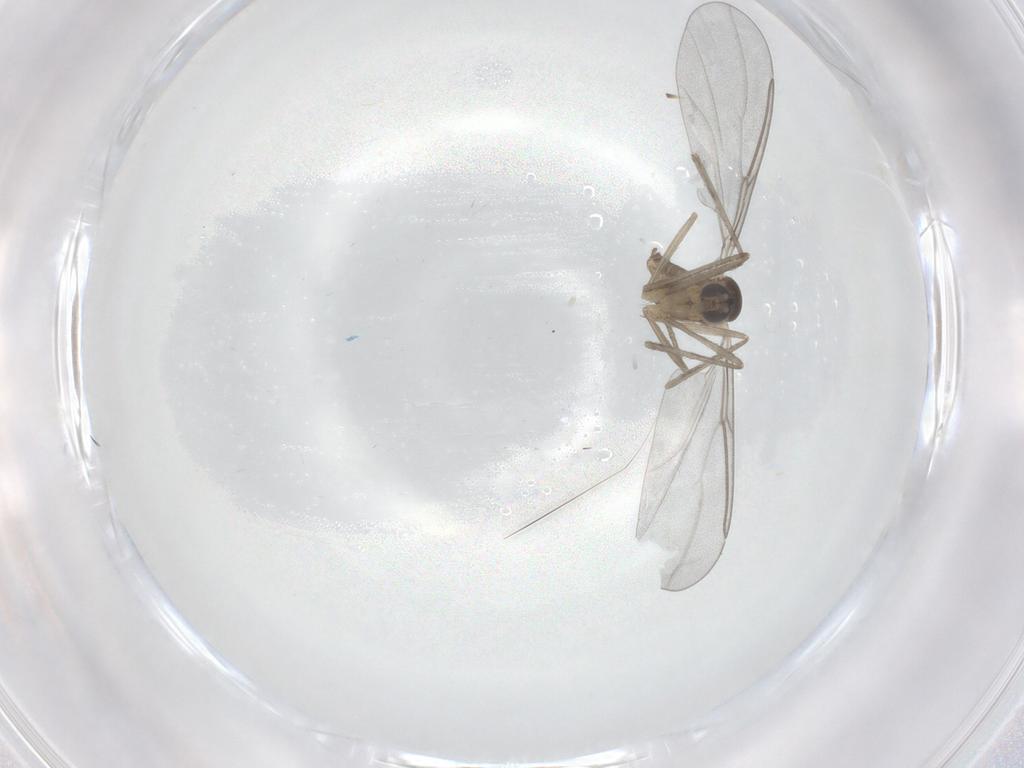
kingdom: Animalia
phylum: Arthropoda
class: Insecta
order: Diptera
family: Cecidomyiidae
